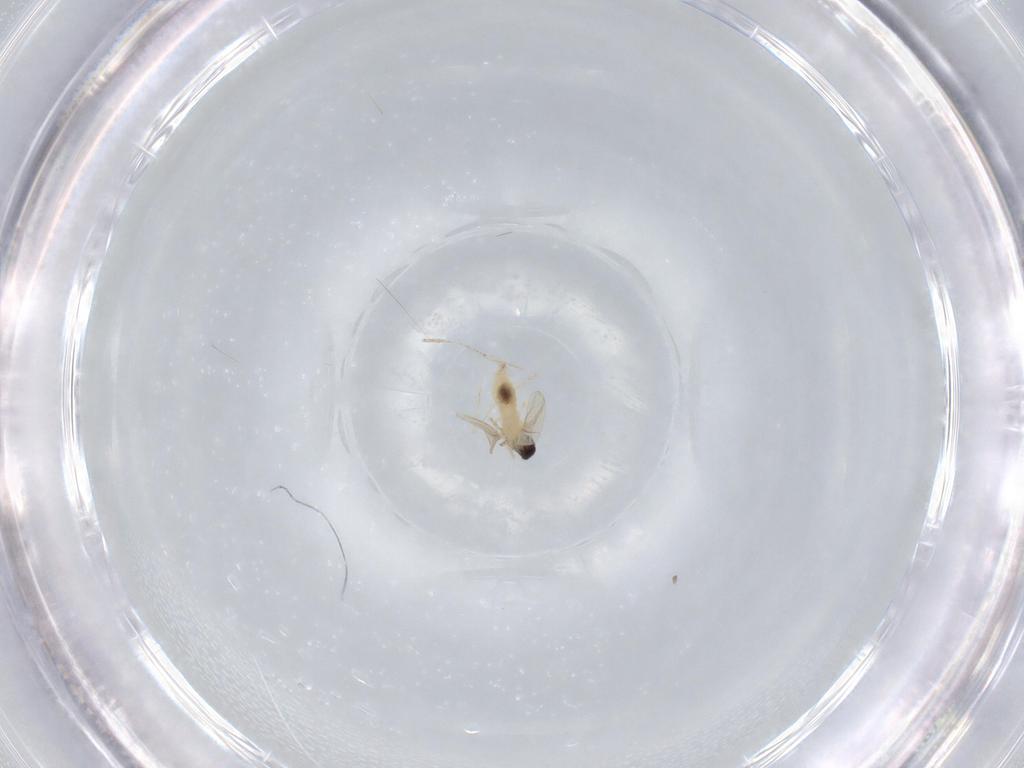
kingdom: Animalia
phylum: Arthropoda
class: Insecta
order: Diptera
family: Cecidomyiidae
